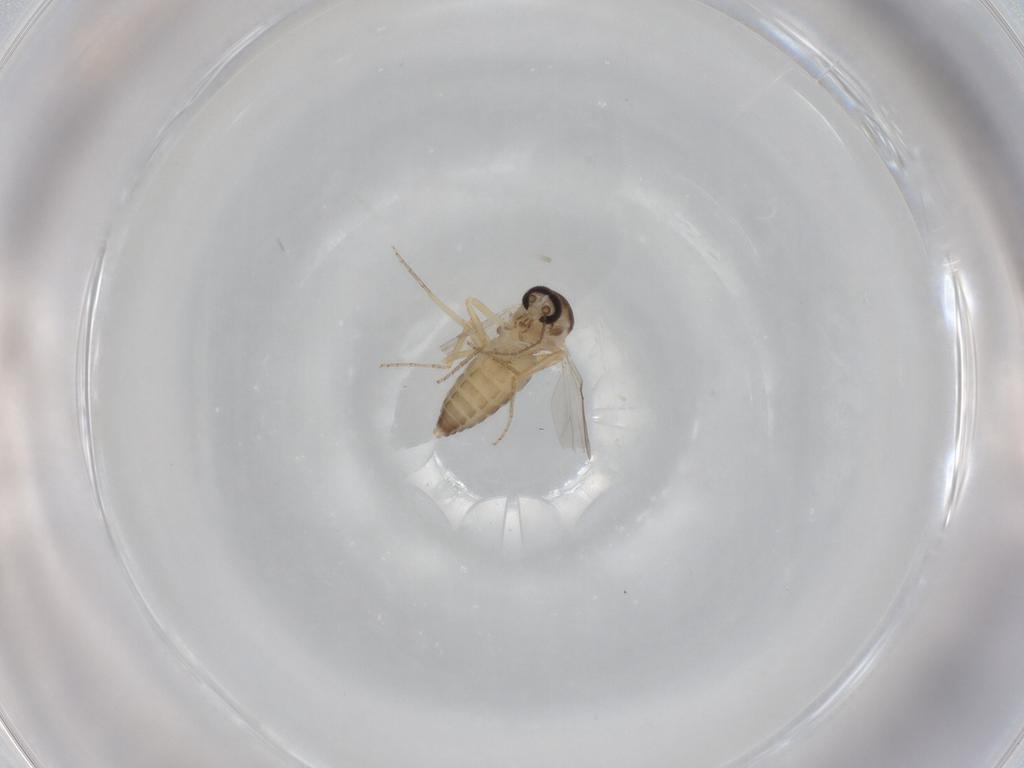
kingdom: Animalia
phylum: Arthropoda
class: Insecta
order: Diptera
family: Ceratopogonidae
